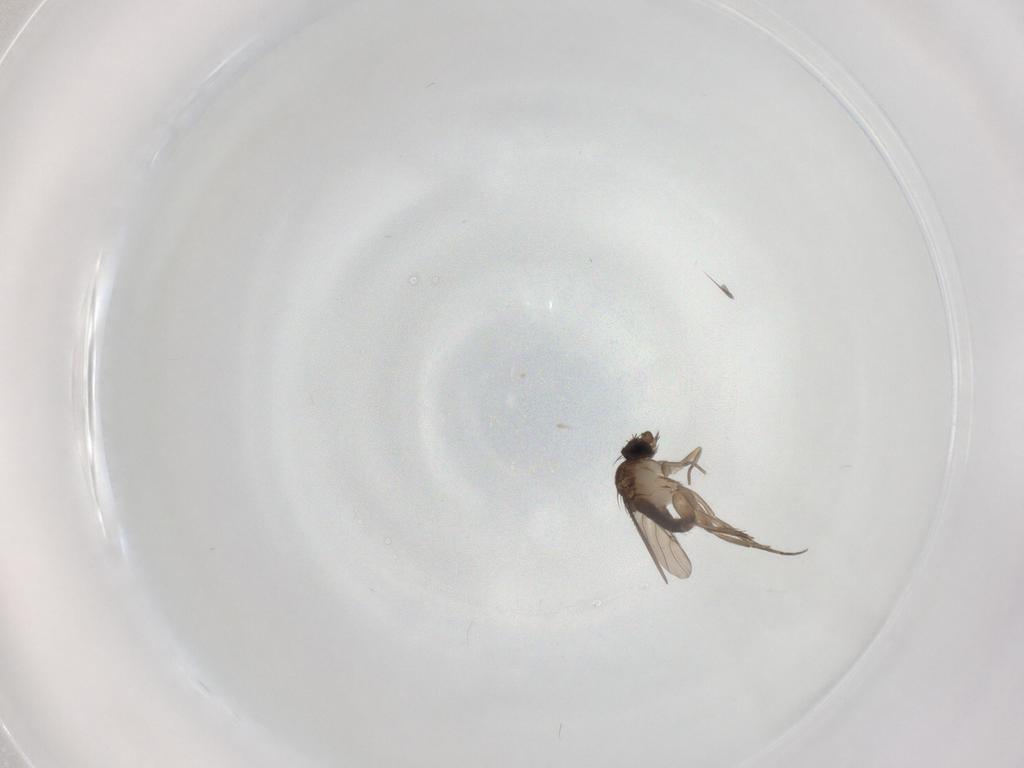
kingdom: Animalia
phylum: Arthropoda
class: Insecta
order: Diptera
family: Phoridae
